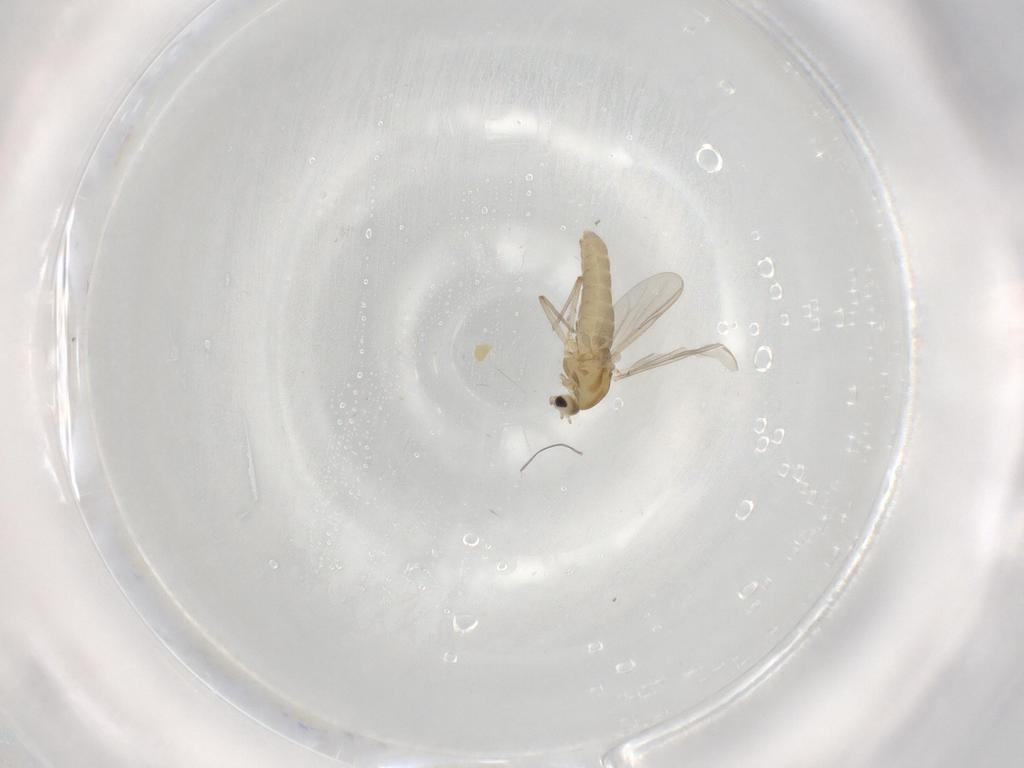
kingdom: Animalia
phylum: Arthropoda
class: Insecta
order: Diptera
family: Chironomidae
